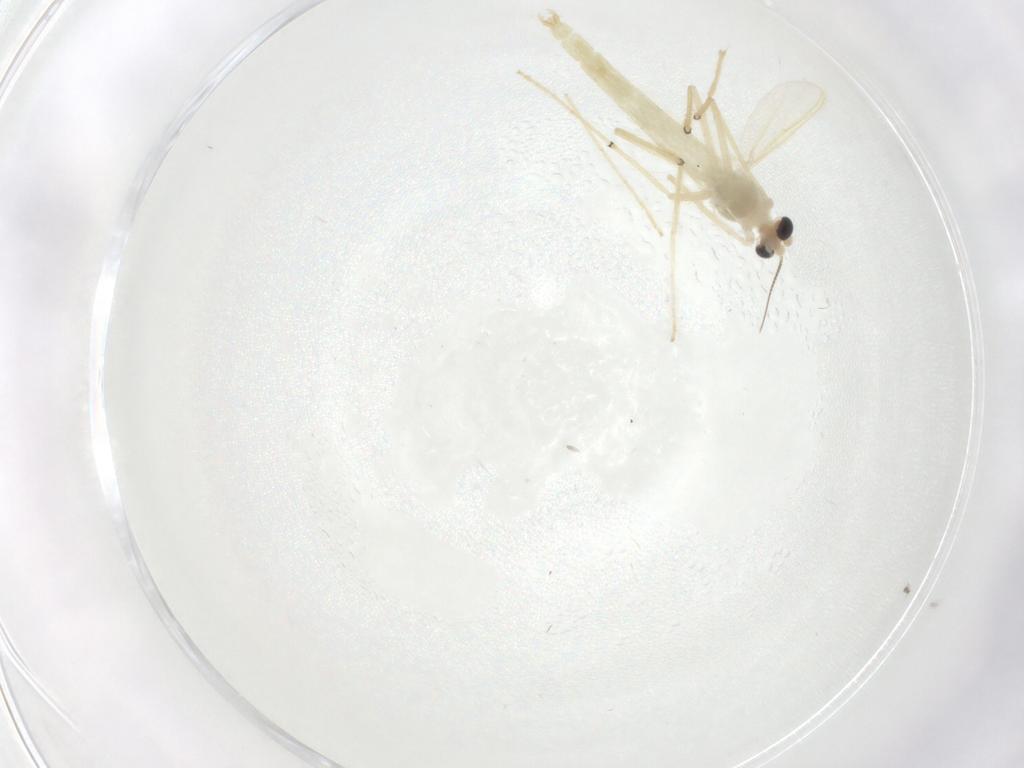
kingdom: Animalia
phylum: Arthropoda
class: Insecta
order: Diptera
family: Chironomidae
